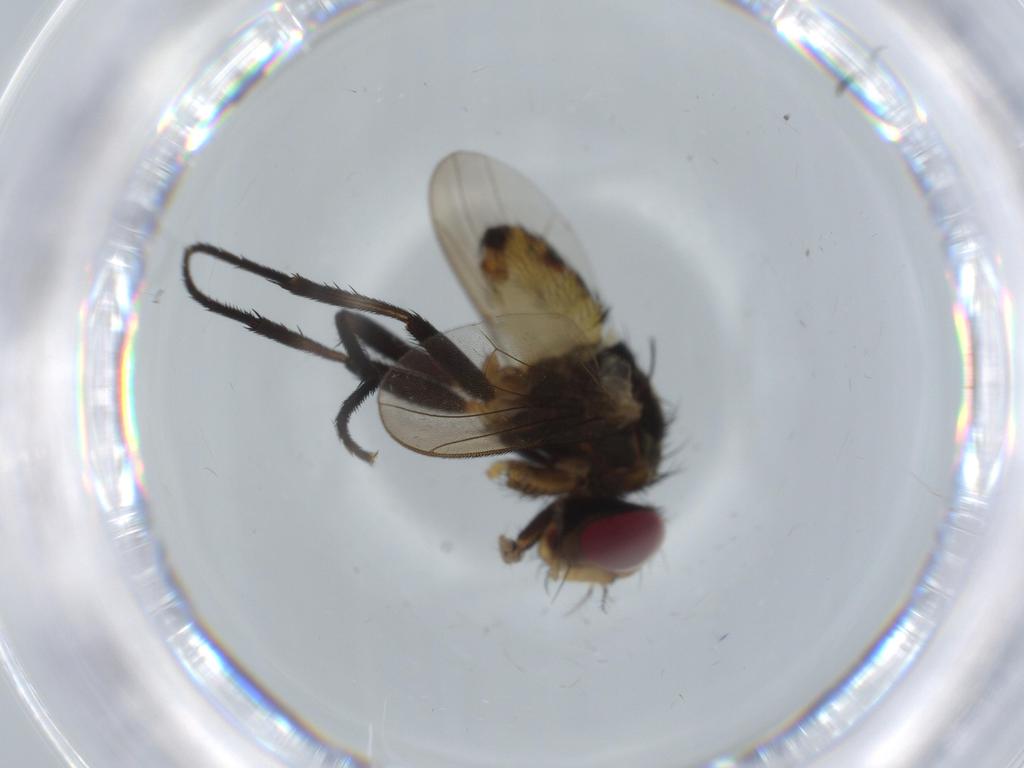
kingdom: Animalia
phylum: Arthropoda
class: Insecta
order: Diptera
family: Anthomyiidae
